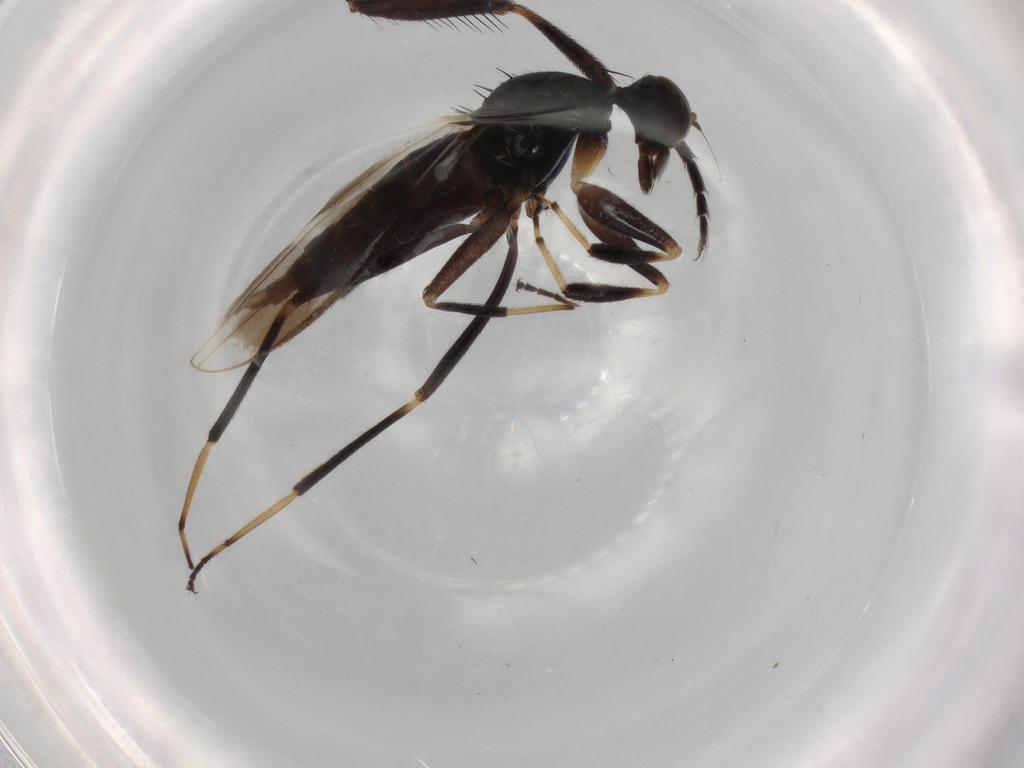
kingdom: Animalia
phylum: Arthropoda
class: Insecta
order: Diptera
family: Hybotidae
